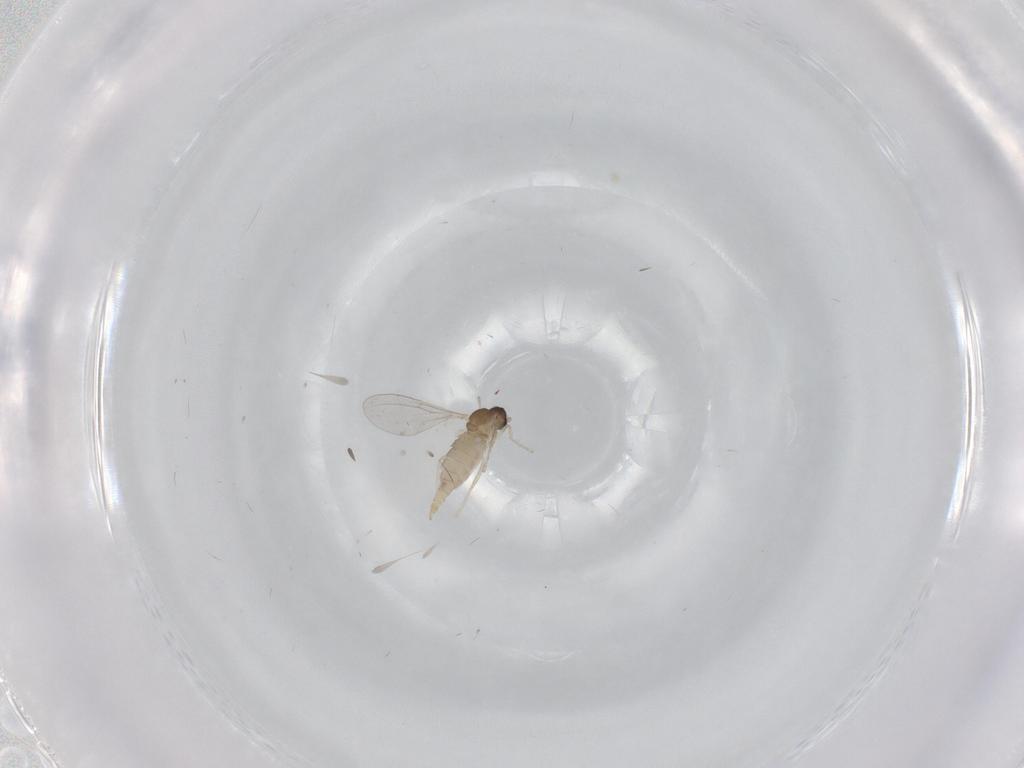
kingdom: Animalia
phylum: Arthropoda
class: Insecta
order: Diptera
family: Cecidomyiidae
